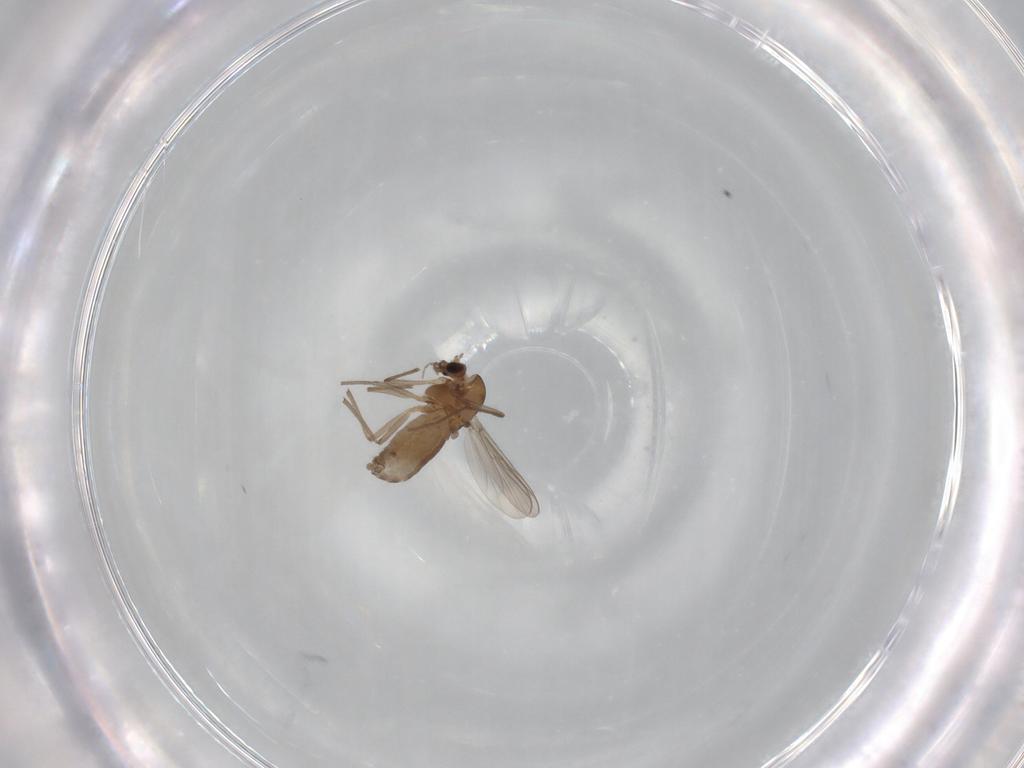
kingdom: Animalia
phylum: Arthropoda
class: Insecta
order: Diptera
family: Chironomidae
